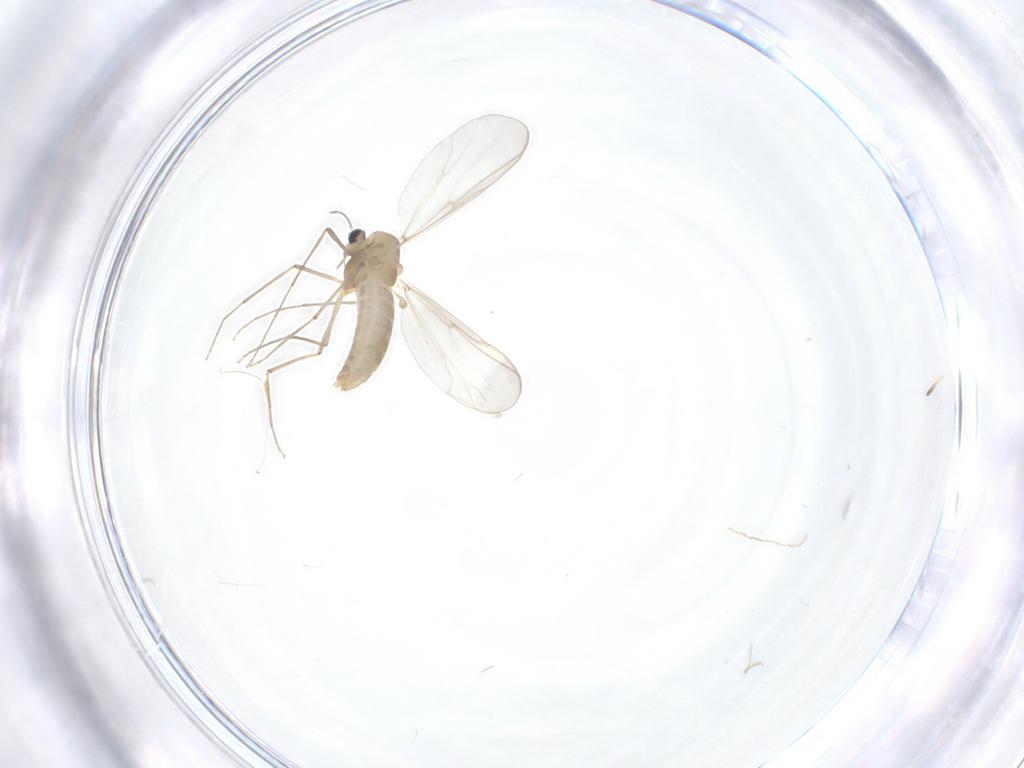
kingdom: Animalia
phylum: Arthropoda
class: Insecta
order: Diptera
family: Chironomidae
